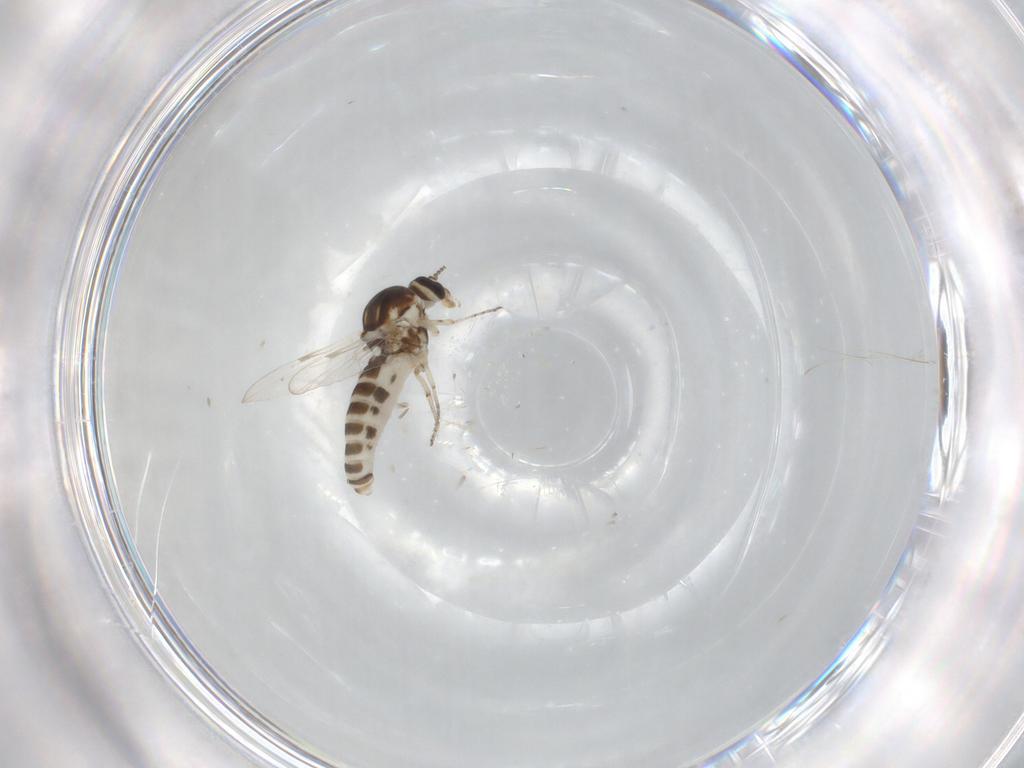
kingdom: Animalia
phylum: Arthropoda
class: Insecta
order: Diptera
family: Ceratopogonidae
